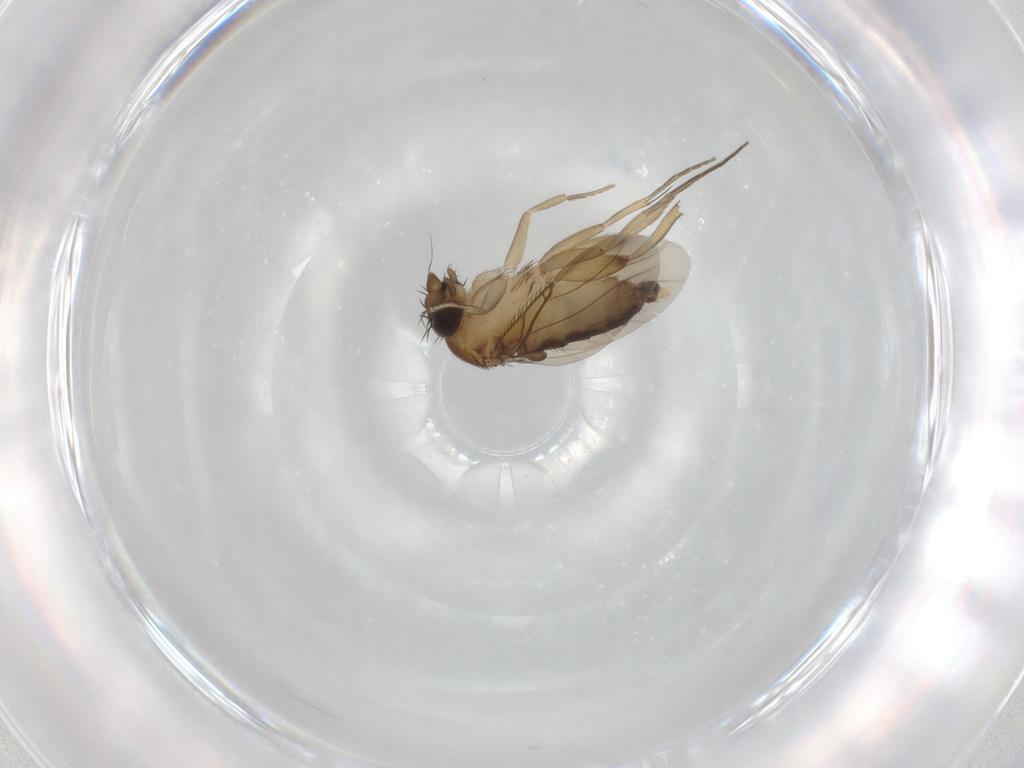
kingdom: Animalia
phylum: Arthropoda
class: Insecta
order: Diptera
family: Phoridae
